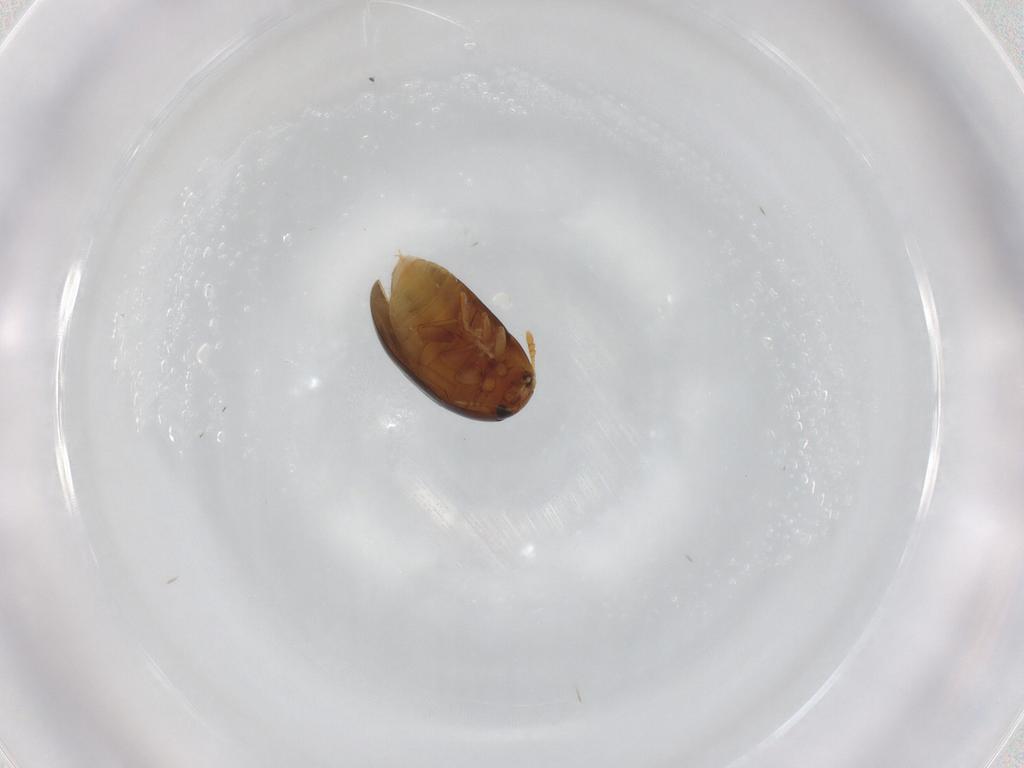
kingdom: Animalia
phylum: Arthropoda
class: Insecta
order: Coleoptera
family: Phalacridae
